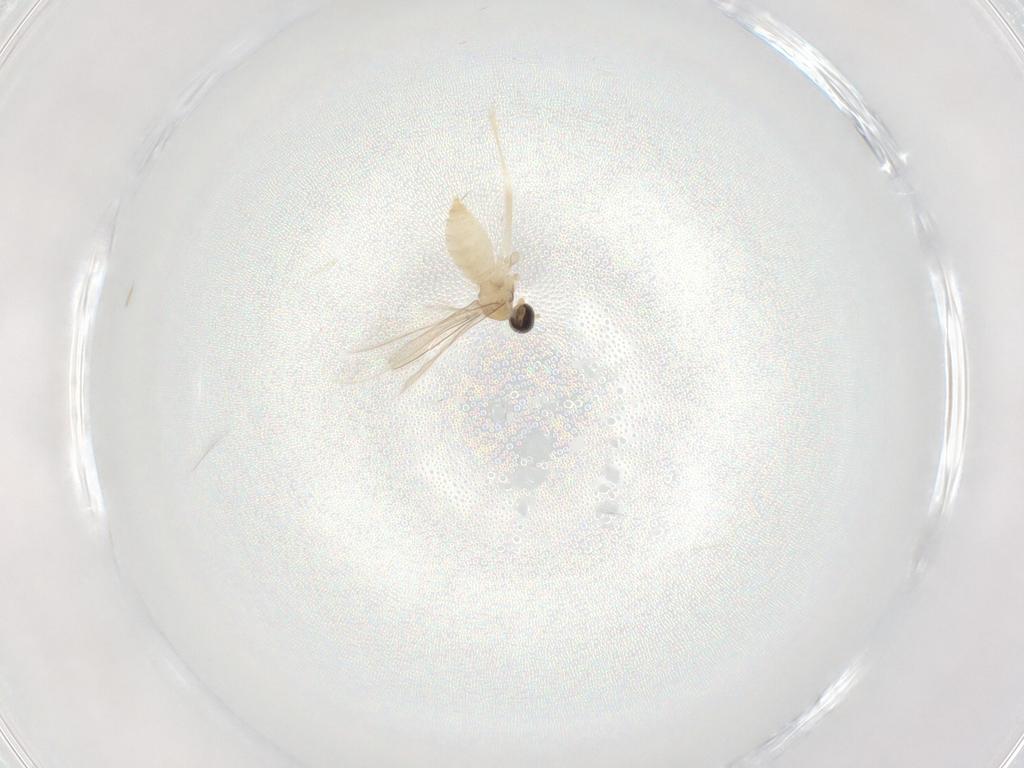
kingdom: Animalia
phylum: Arthropoda
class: Insecta
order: Diptera
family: Cecidomyiidae
